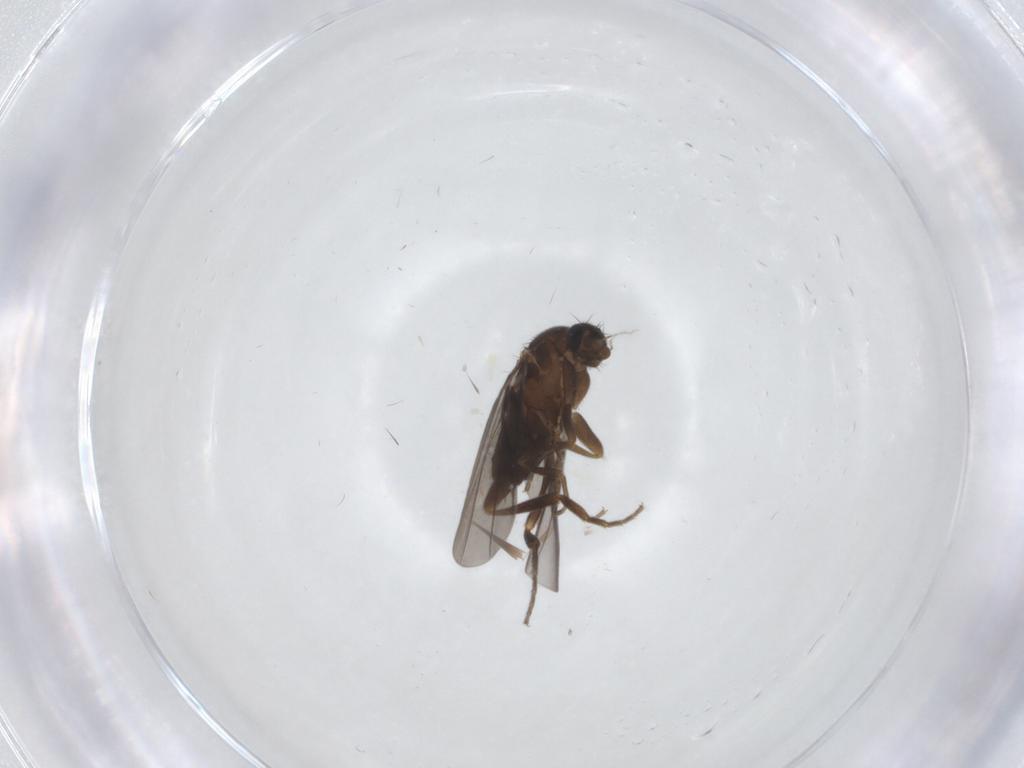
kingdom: Animalia
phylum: Arthropoda
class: Insecta
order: Diptera
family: Phoridae
